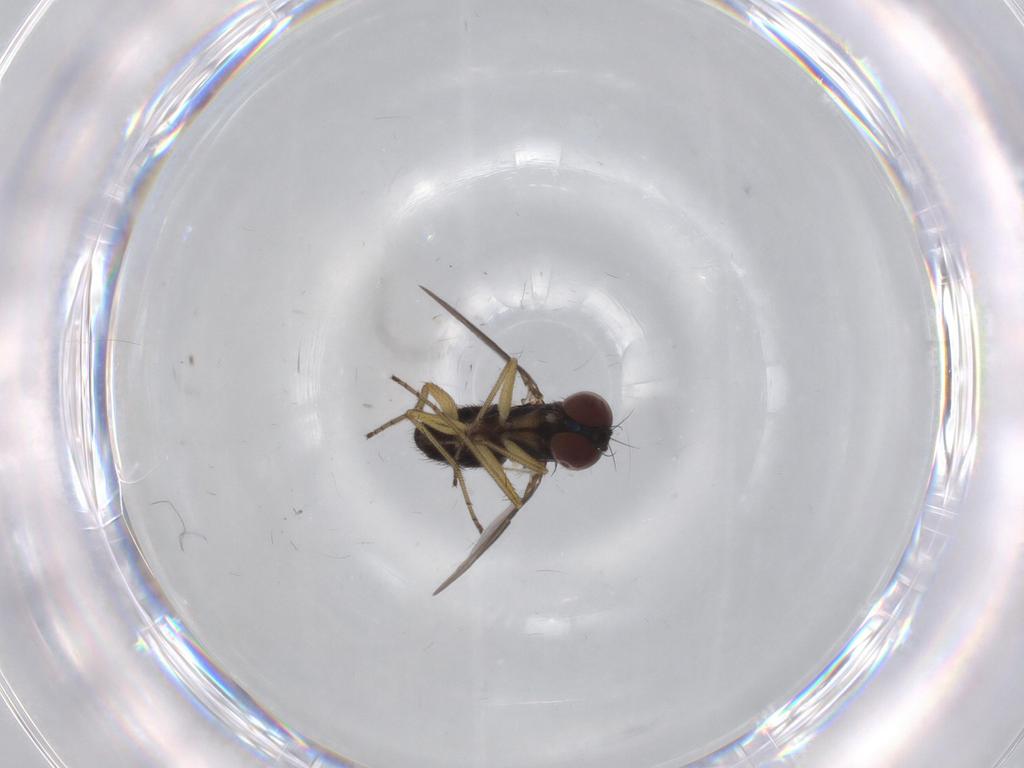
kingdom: Animalia
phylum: Arthropoda
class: Insecta
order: Diptera
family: Dolichopodidae
